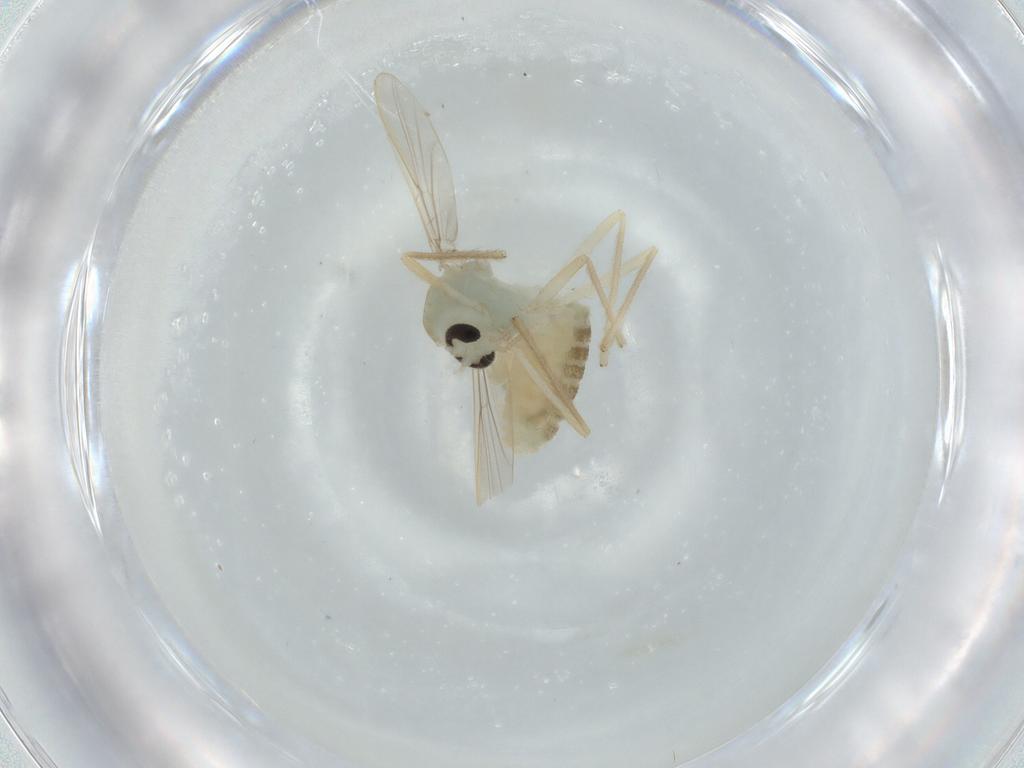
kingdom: Animalia
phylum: Arthropoda
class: Insecta
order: Diptera
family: Chironomidae
